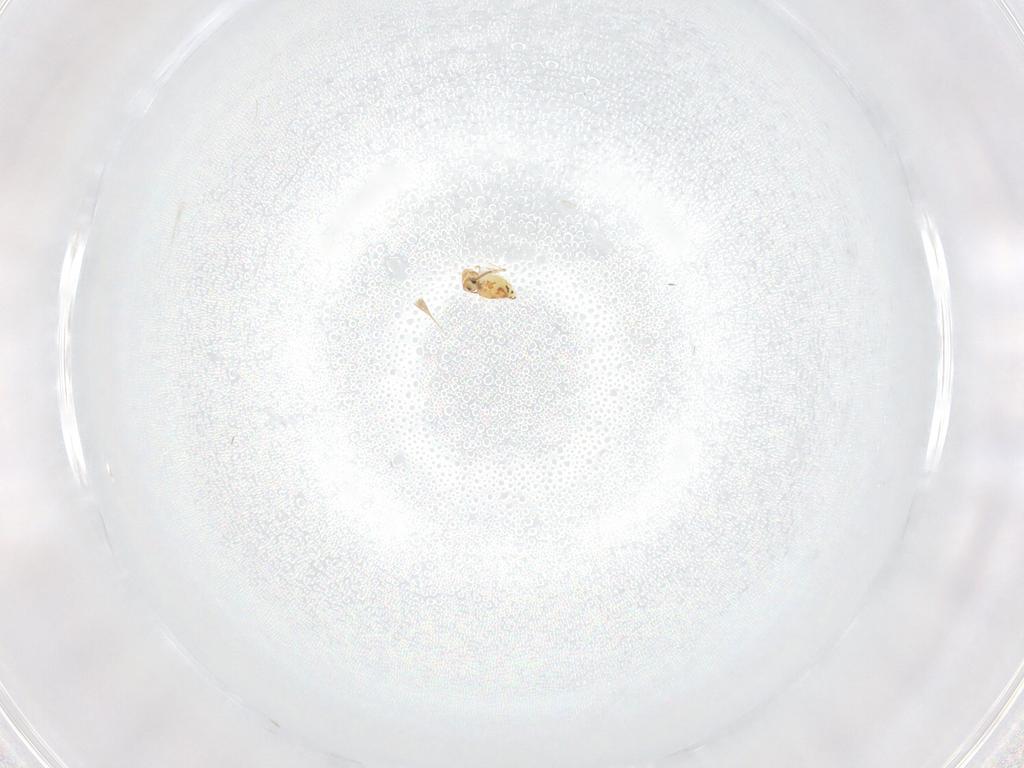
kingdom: Animalia
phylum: Arthropoda
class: Collembola
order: Symphypleona
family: Bourletiellidae
